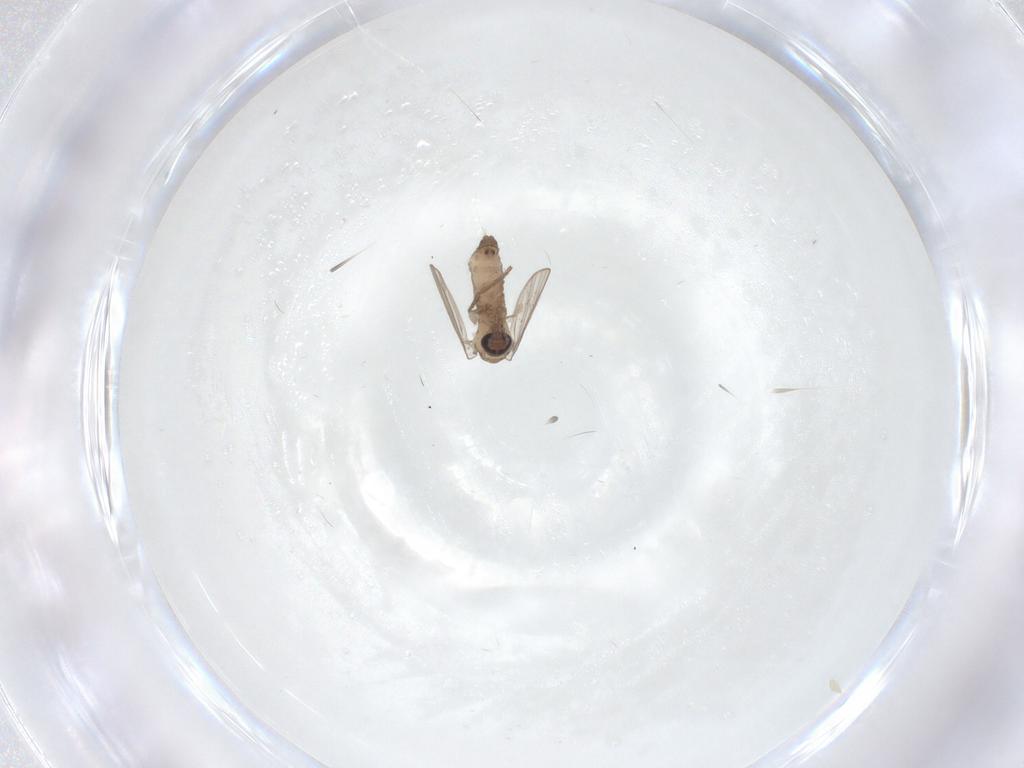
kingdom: Animalia
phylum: Arthropoda
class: Insecta
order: Diptera
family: Psychodidae
